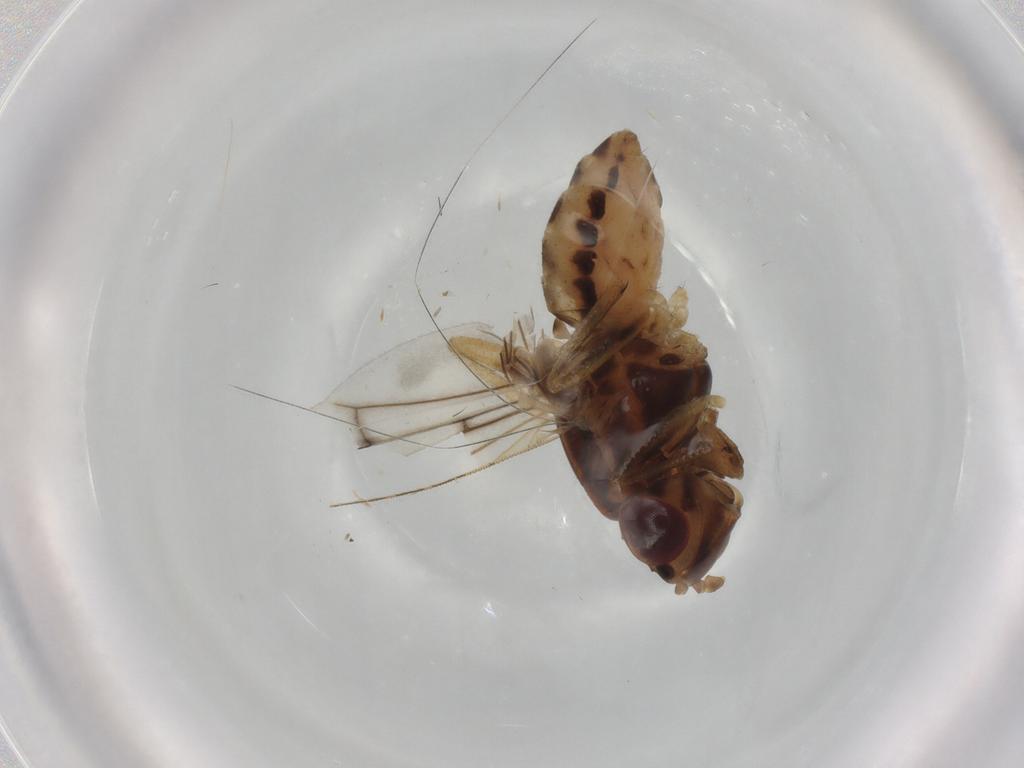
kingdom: Animalia
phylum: Arthropoda
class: Insecta
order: Diptera
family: Lauxaniidae
